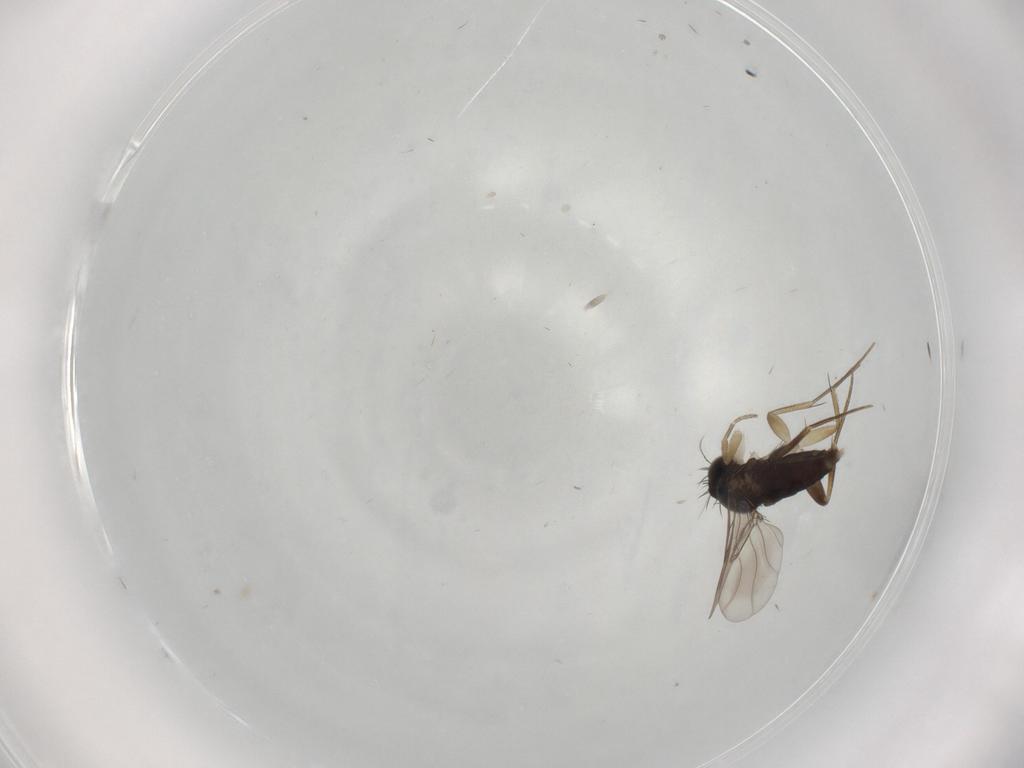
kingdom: Animalia
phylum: Arthropoda
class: Insecta
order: Diptera
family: Phoridae
